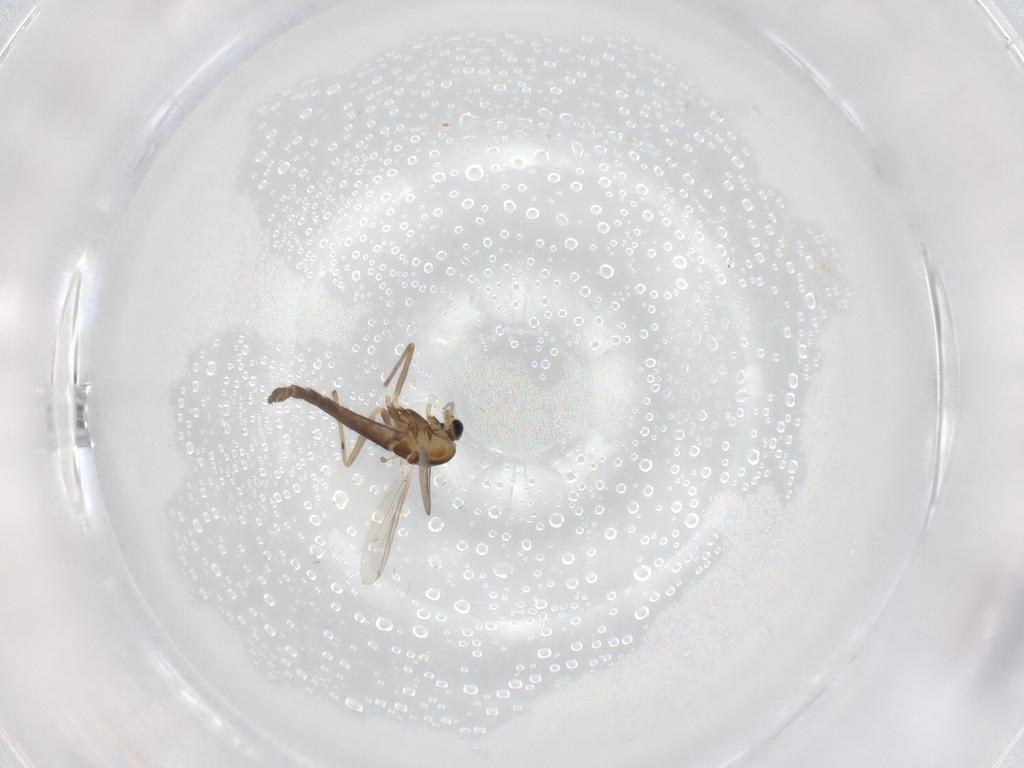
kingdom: Animalia
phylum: Arthropoda
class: Insecta
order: Diptera
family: Chironomidae
